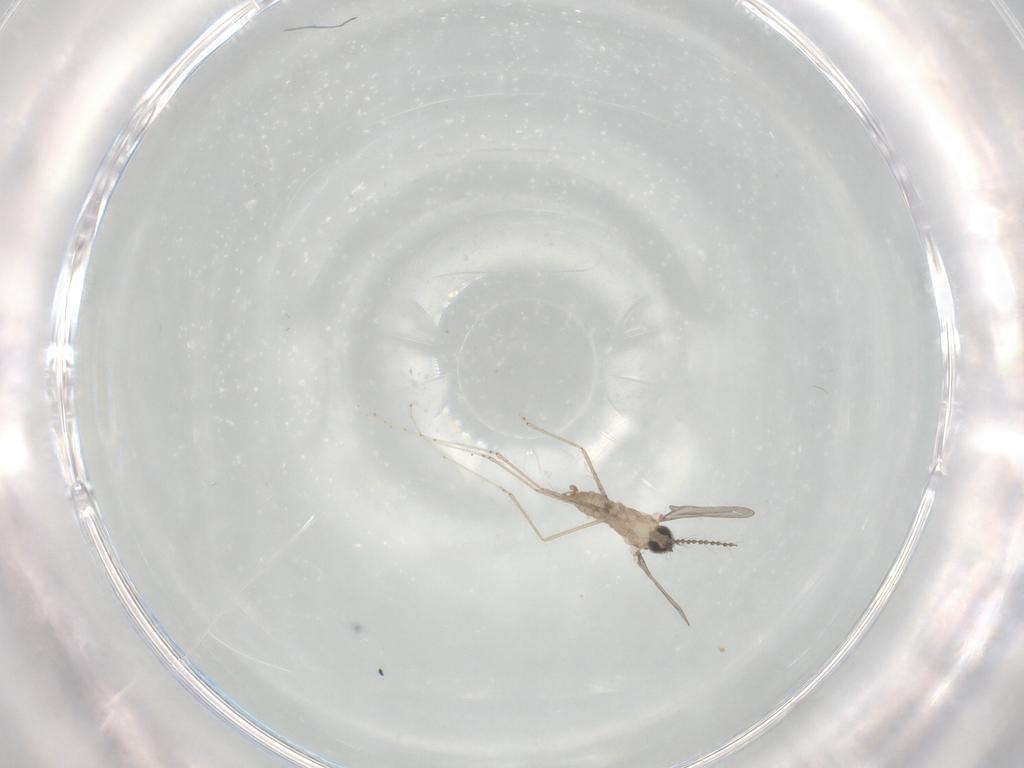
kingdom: Animalia
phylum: Arthropoda
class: Insecta
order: Diptera
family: Cecidomyiidae
